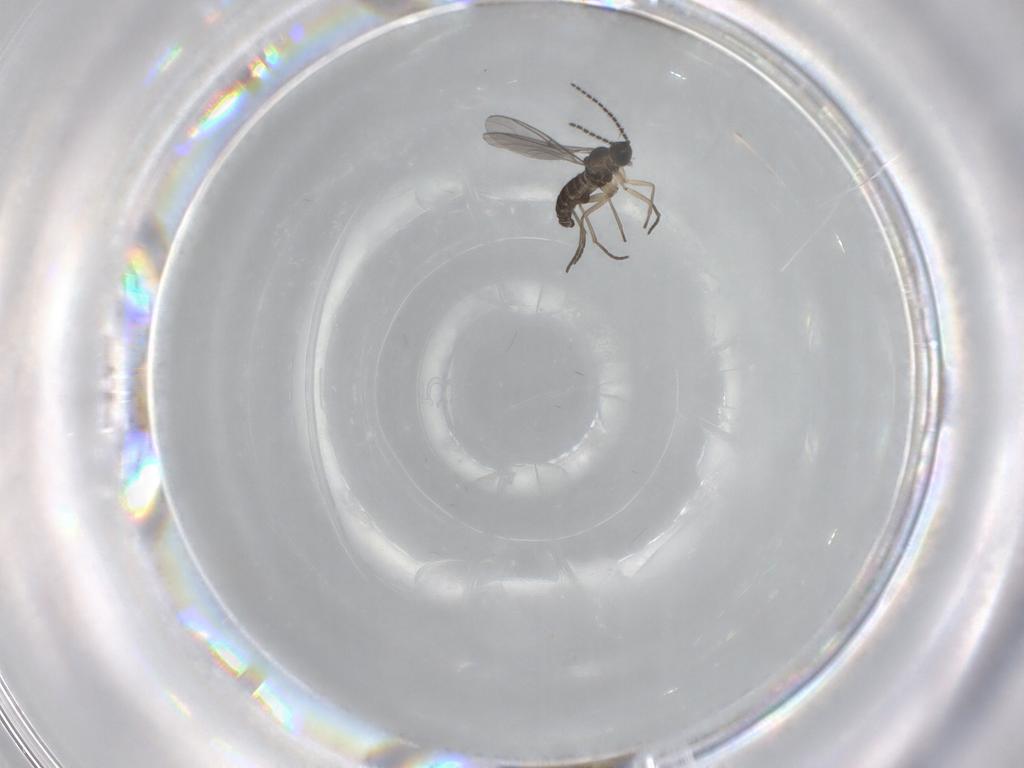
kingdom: Animalia
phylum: Arthropoda
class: Insecta
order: Diptera
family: Sciaridae
